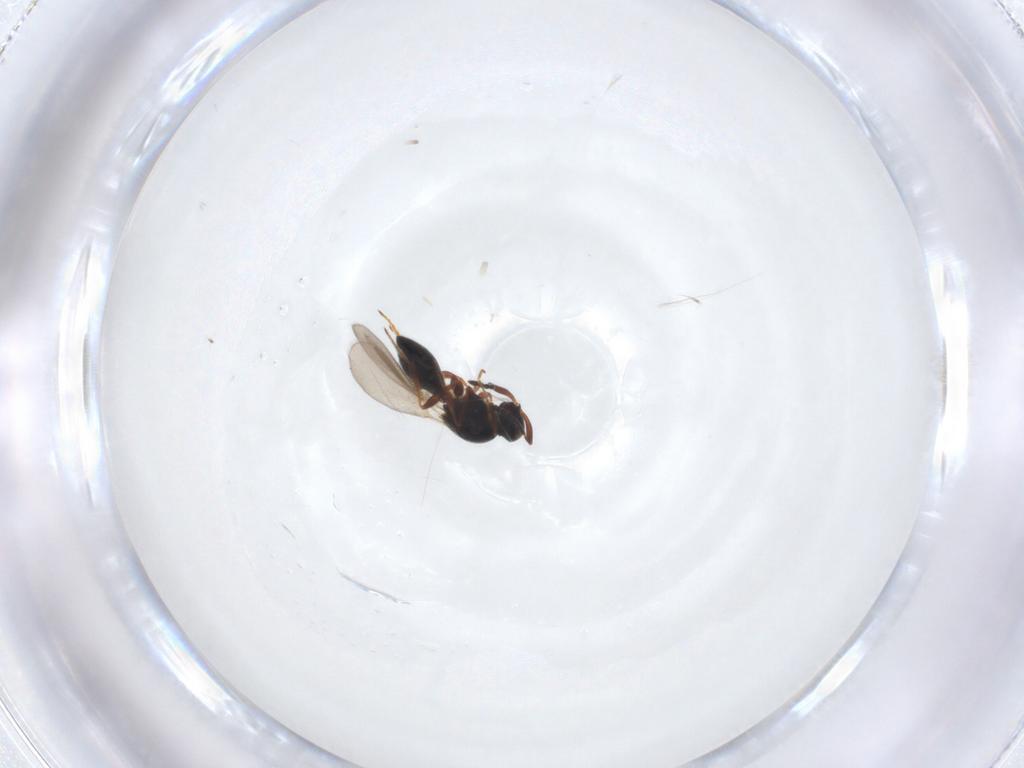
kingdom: Animalia
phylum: Arthropoda
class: Insecta
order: Hymenoptera
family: Platygastridae
